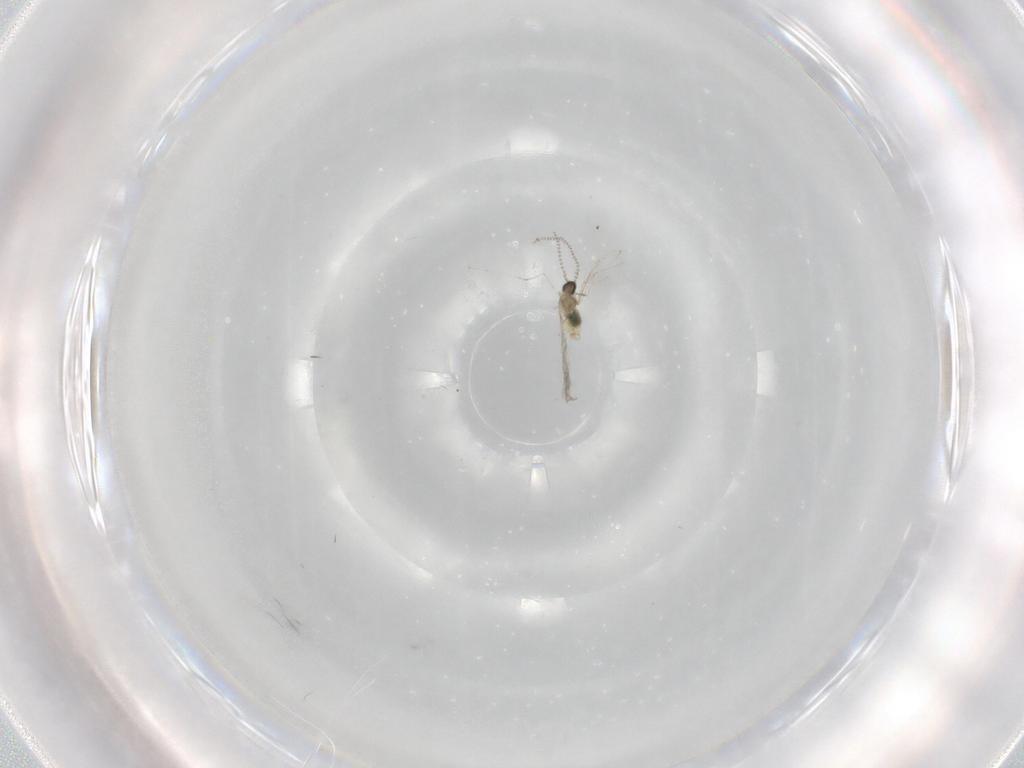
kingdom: Animalia
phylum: Arthropoda
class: Insecta
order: Diptera
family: Cecidomyiidae
